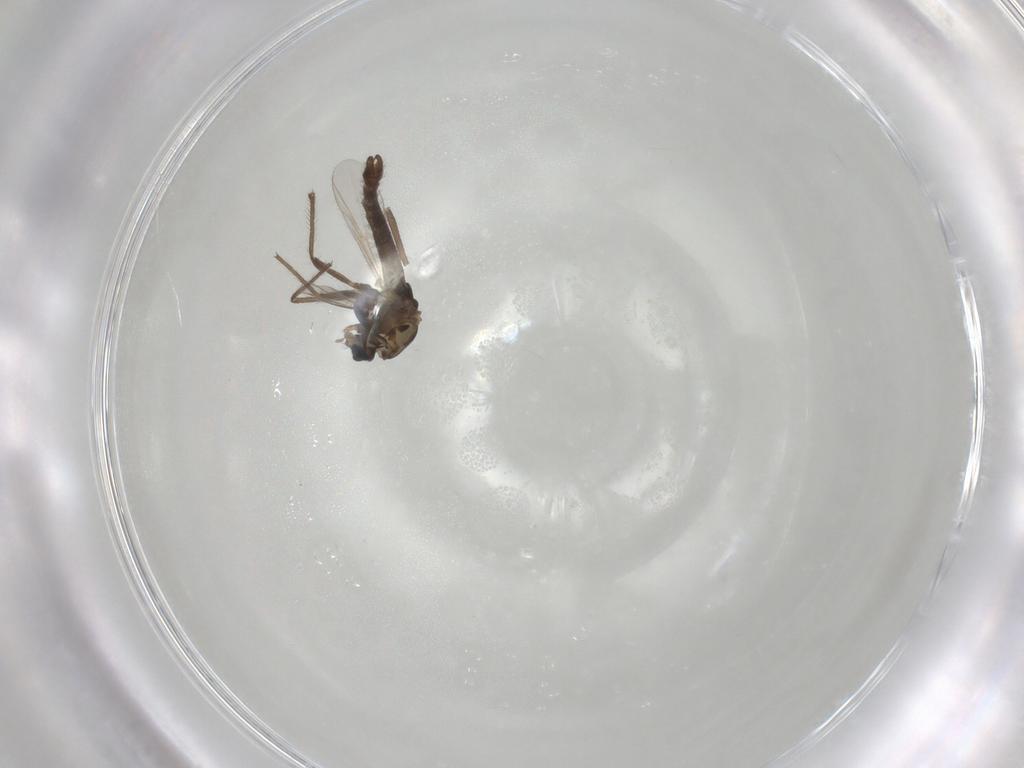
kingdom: Animalia
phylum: Arthropoda
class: Insecta
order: Diptera
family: Chironomidae
